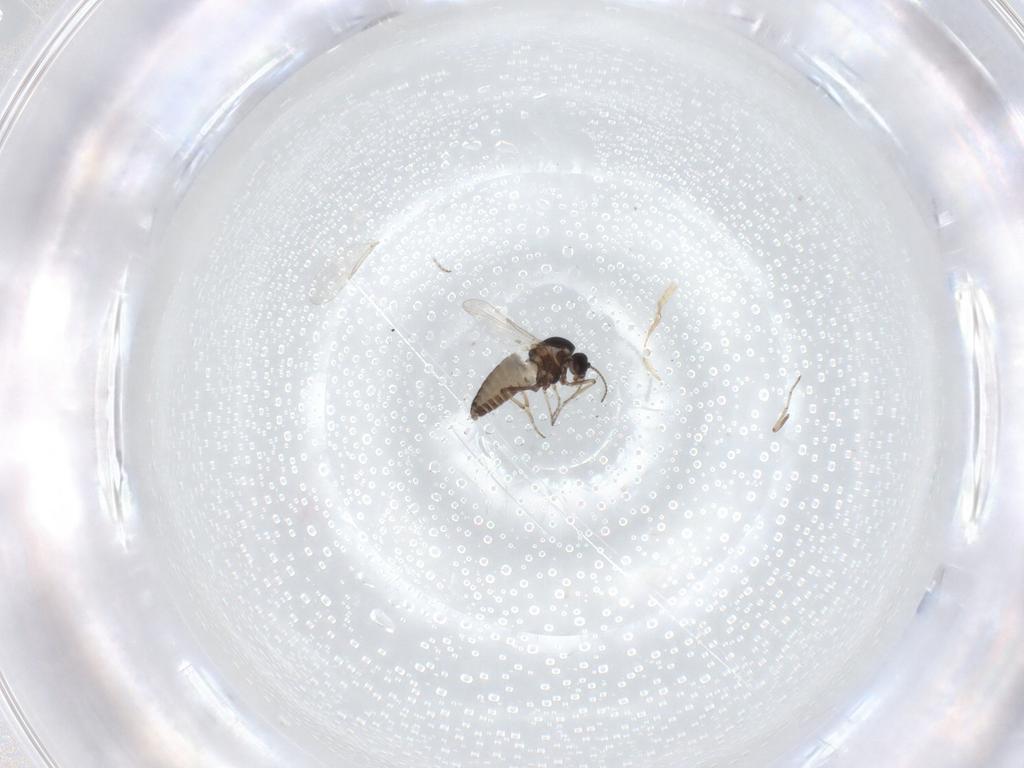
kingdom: Animalia
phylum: Arthropoda
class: Insecta
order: Diptera
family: Ceratopogonidae
